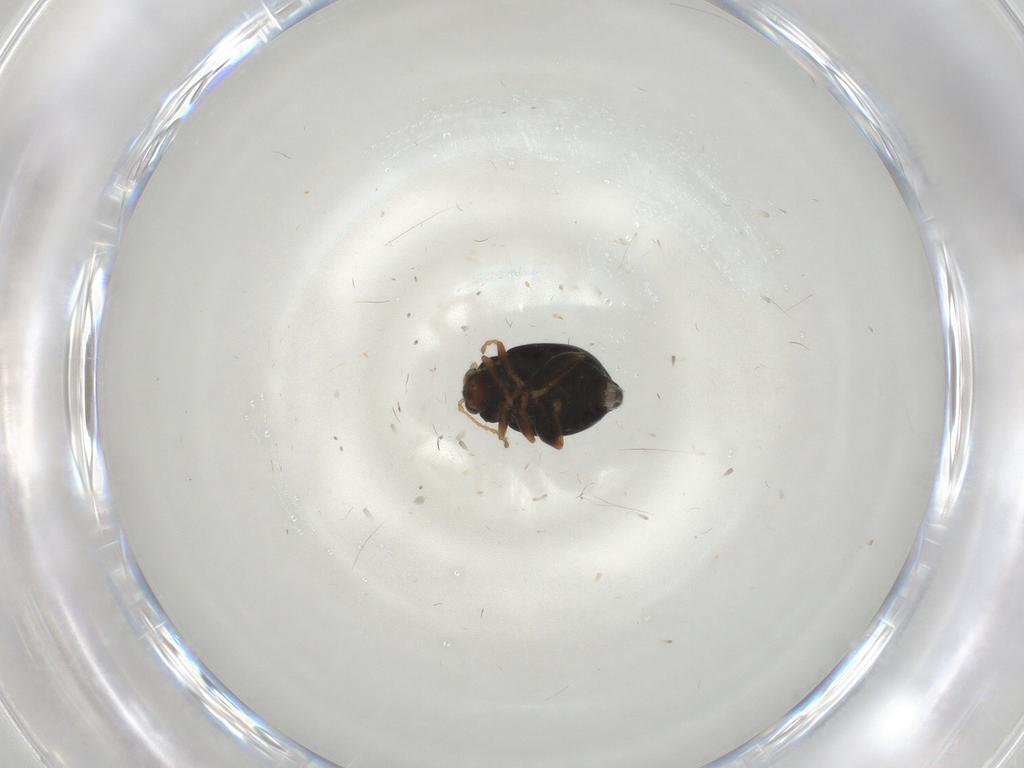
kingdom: Animalia
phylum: Arthropoda
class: Insecta
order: Coleoptera
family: Chrysomelidae
